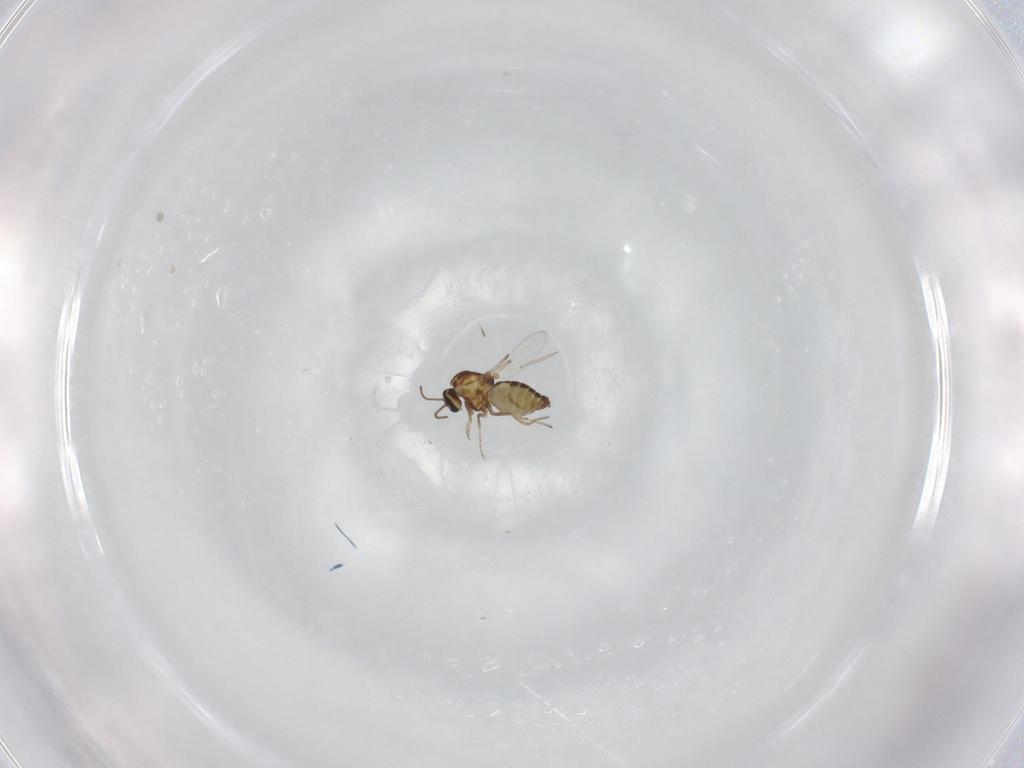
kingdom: Animalia
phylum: Arthropoda
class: Insecta
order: Diptera
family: Ceratopogonidae
